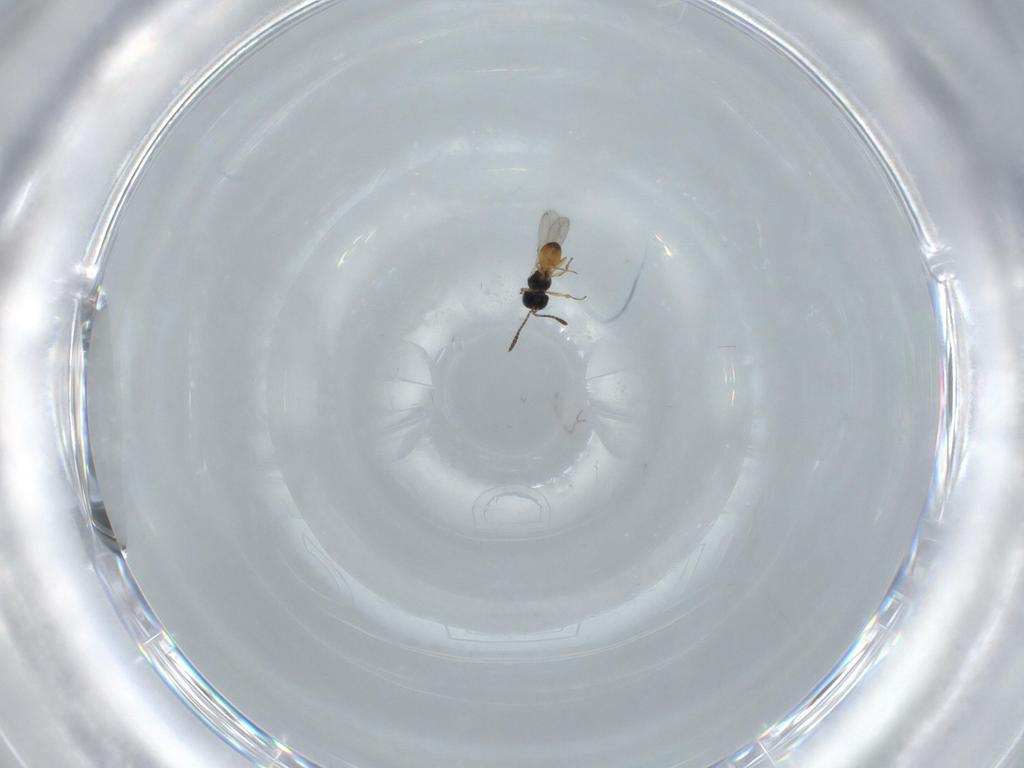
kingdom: Animalia
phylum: Arthropoda
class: Insecta
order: Hymenoptera
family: Scelionidae
